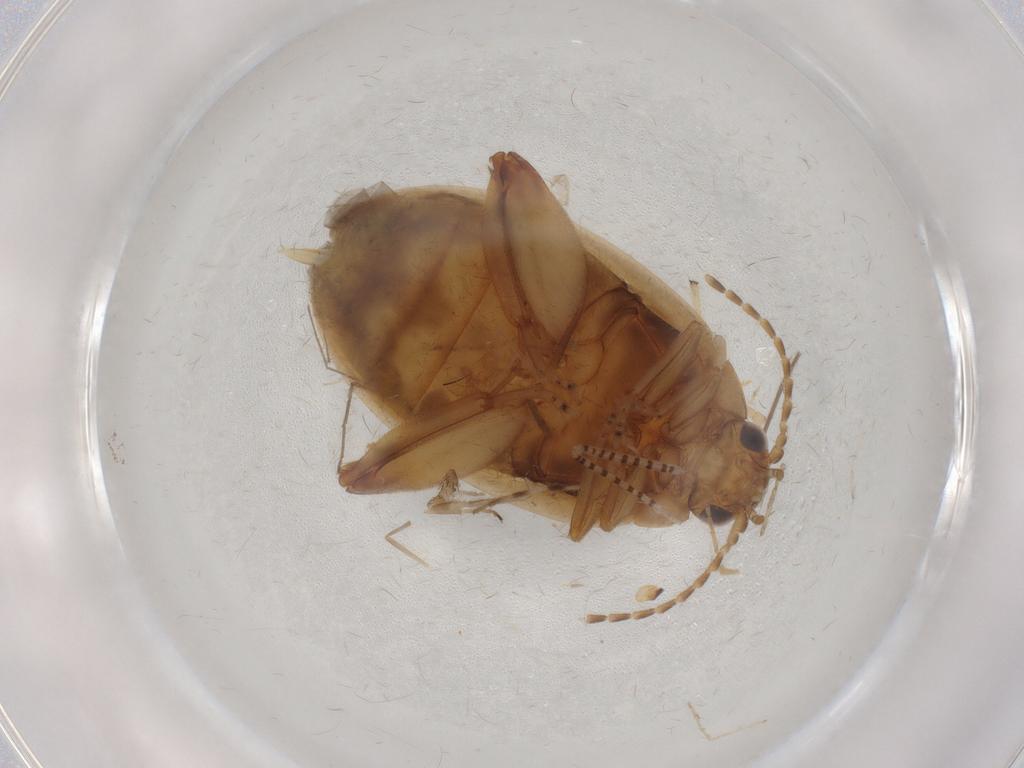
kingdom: Animalia
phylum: Arthropoda
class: Insecta
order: Coleoptera
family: Scirtidae
